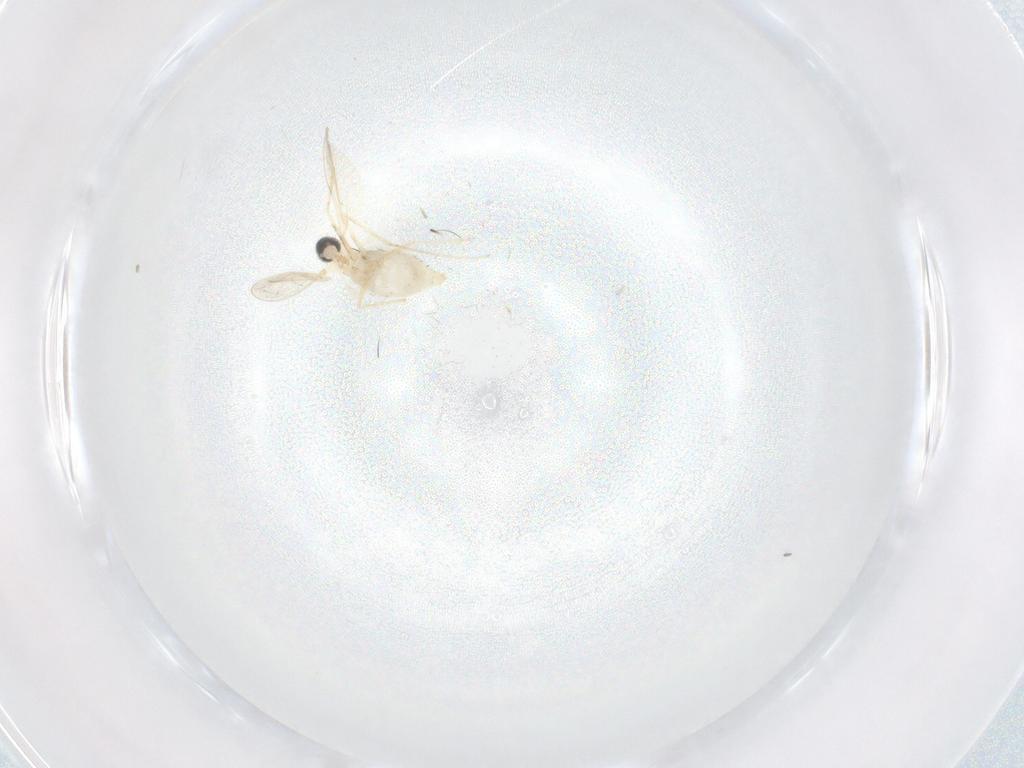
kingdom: Animalia
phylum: Arthropoda
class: Insecta
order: Diptera
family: Cecidomyiidae
